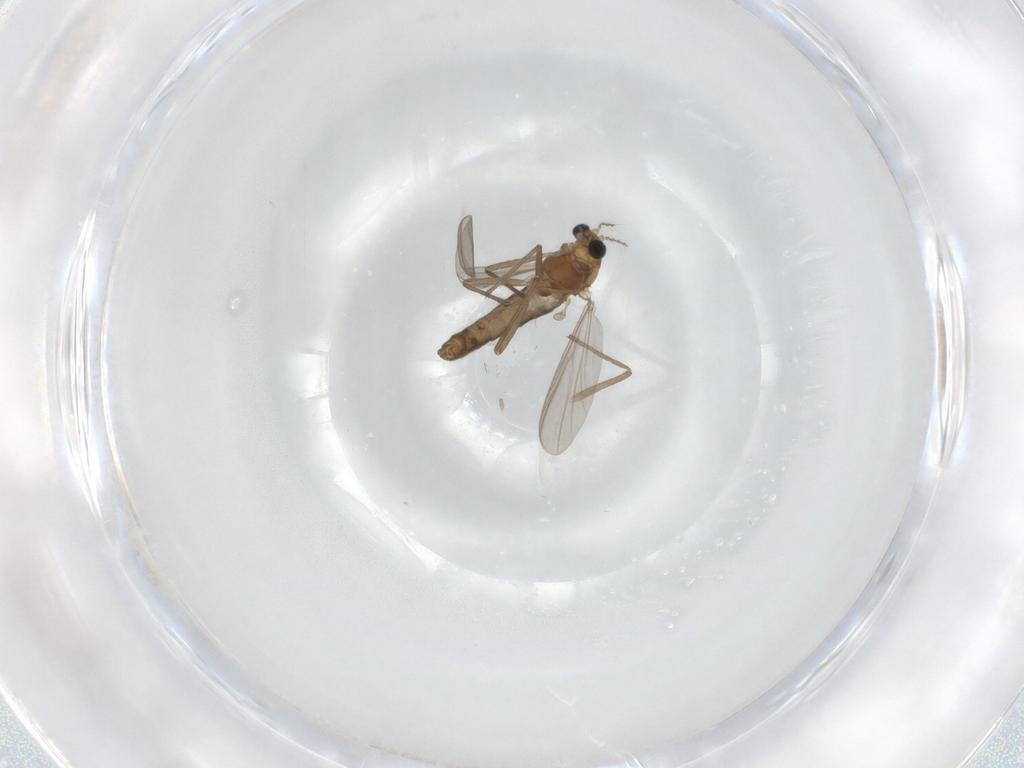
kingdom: Animalia
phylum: Arthropoda
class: Insecta
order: Diptera
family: Chironomidae
